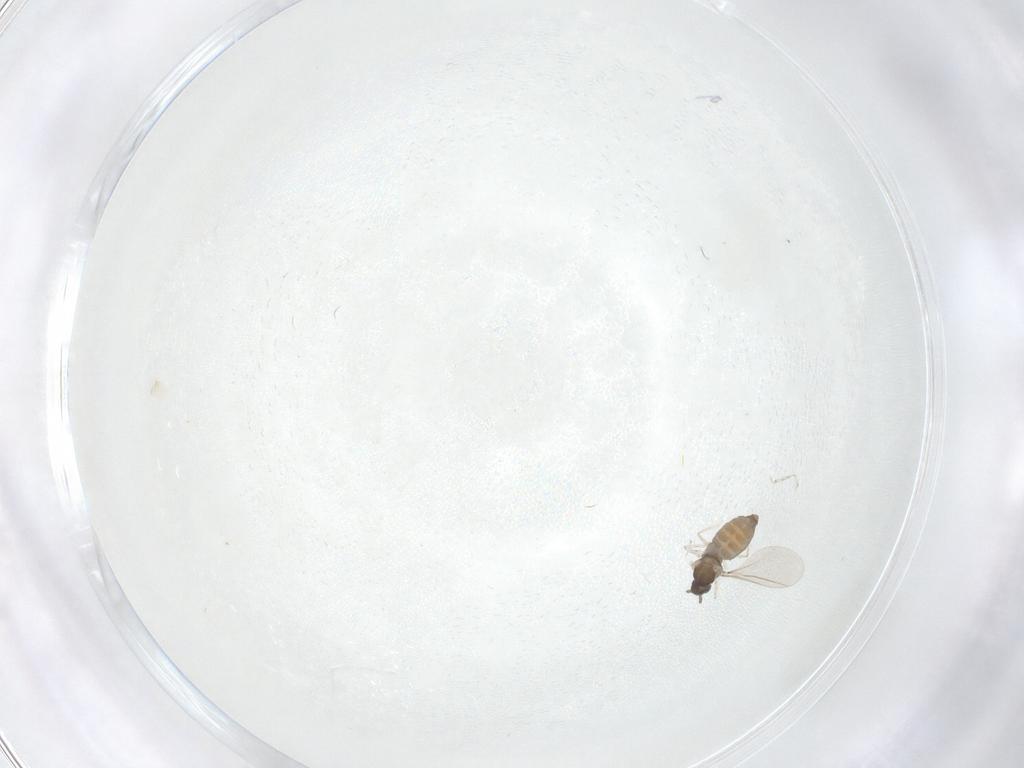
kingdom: Animalia
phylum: Arthropoda
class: Insecta
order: Diptera
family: Cecidomyiidae
